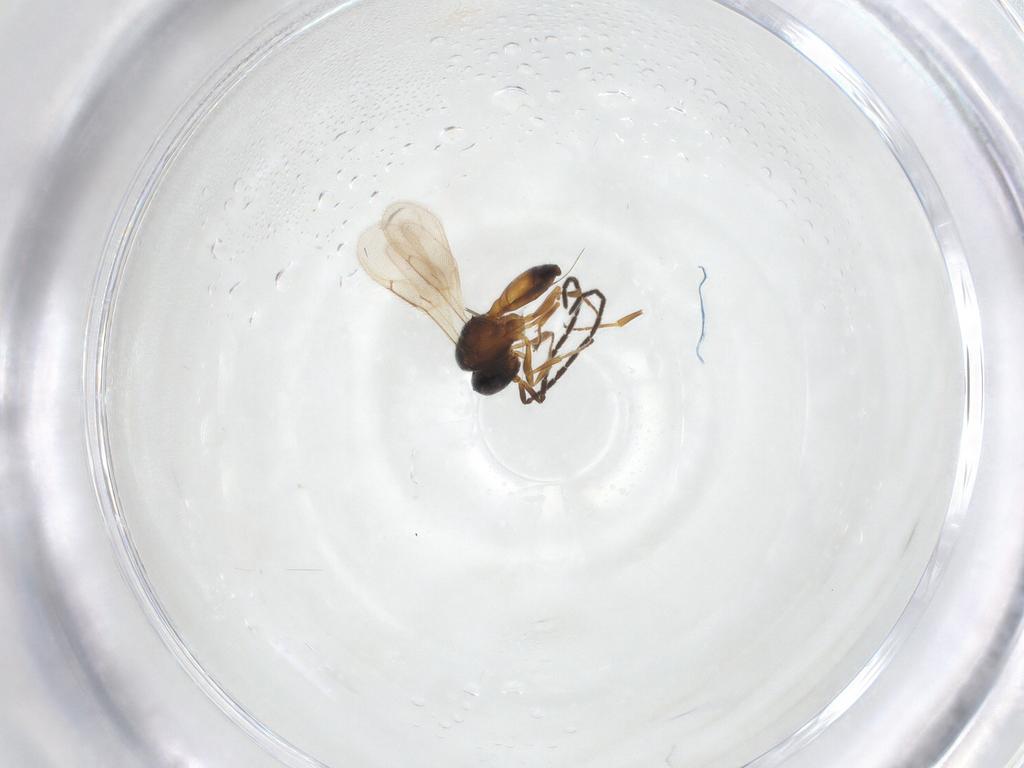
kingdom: Animalia
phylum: Arthropoda
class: Insecta
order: Hymenoptera
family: Scelionidae
